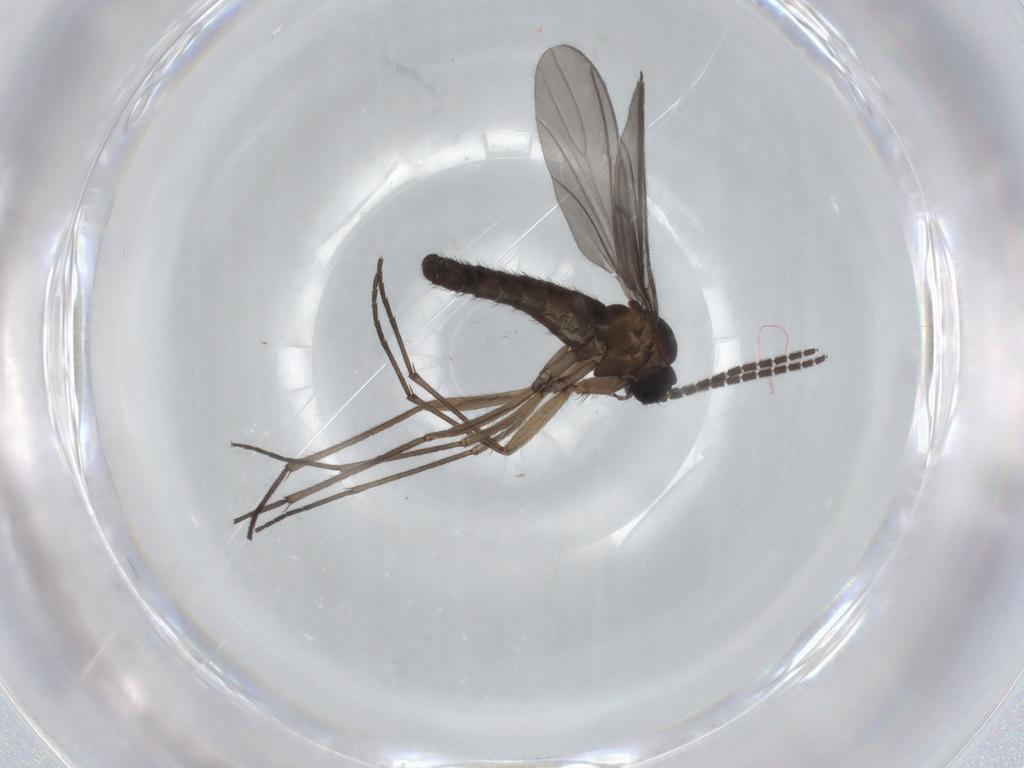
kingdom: Animalia
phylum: Arthropoda
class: Insecta
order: Diptera
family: Sciaridae
